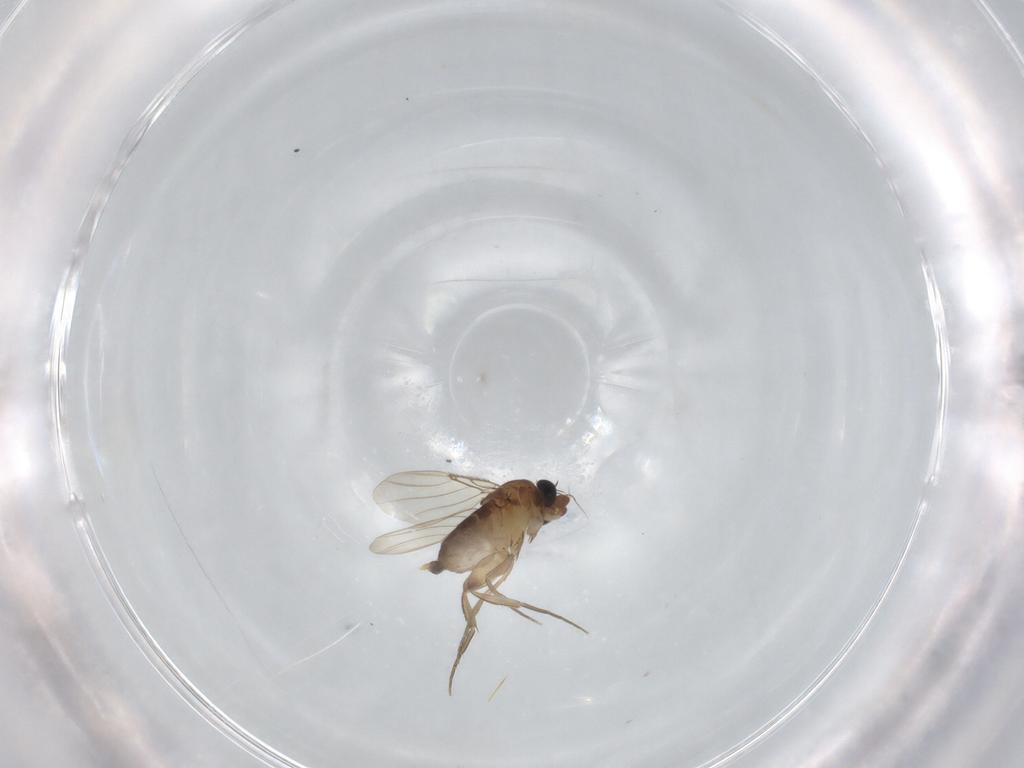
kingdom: Animalia
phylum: Arthropoda
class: Insecta
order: Diptera
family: Phoridae
